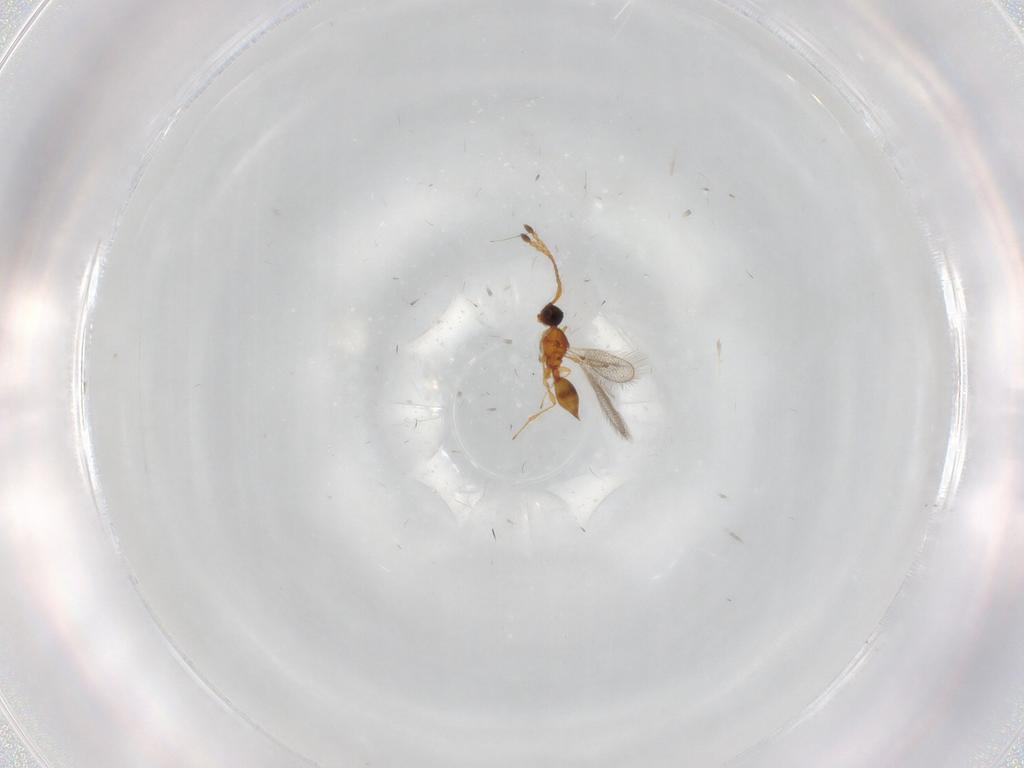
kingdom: Animalia
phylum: Arthropoda
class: Insecta
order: Hymenoptera
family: Diapriidae
